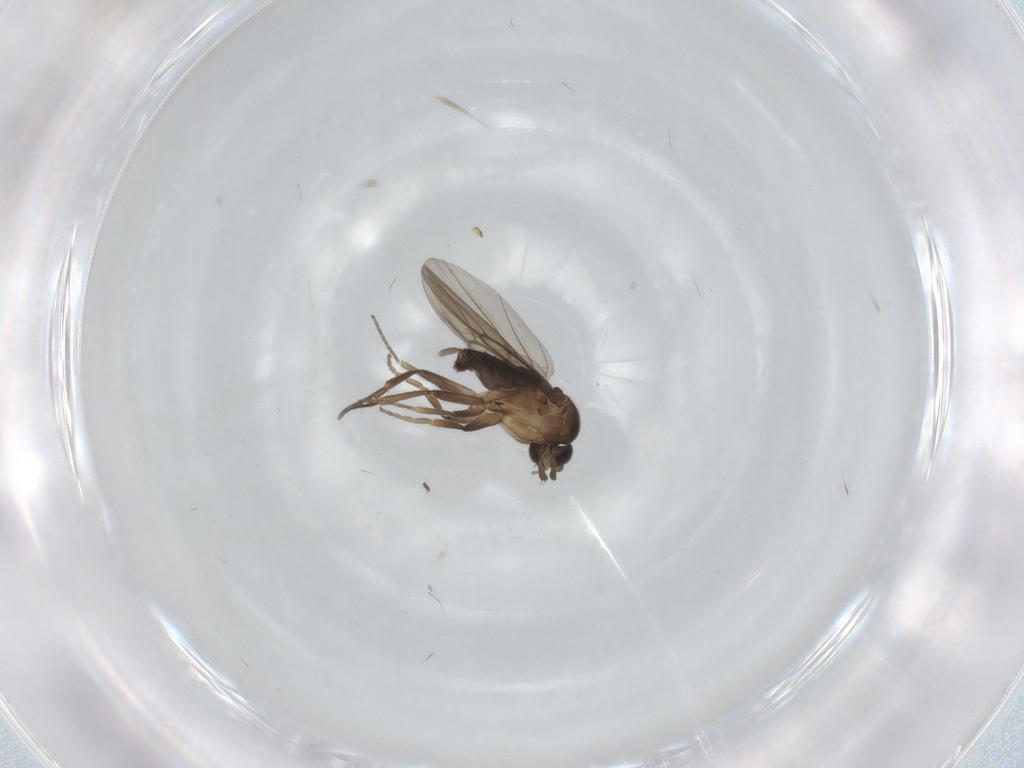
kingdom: Animalia
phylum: Arthropoda
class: Insecta
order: Diptera
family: Phoridae
